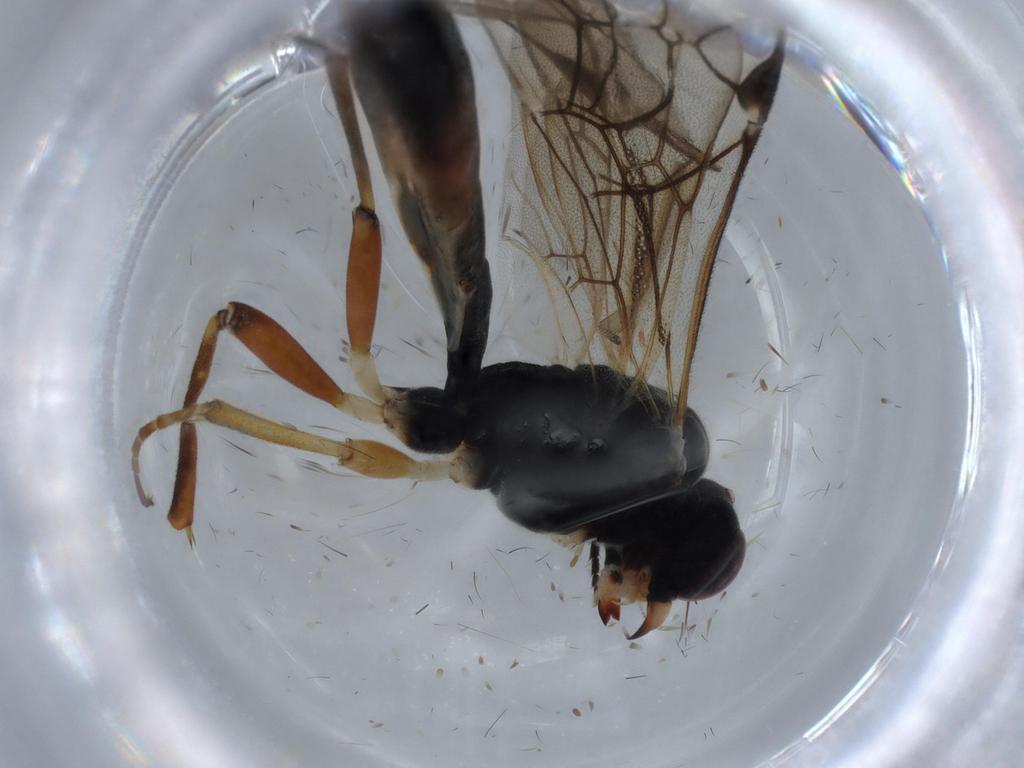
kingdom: Animalia
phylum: Arthropoda
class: Insecta
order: Hymenoptera
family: Ichneumonidae
